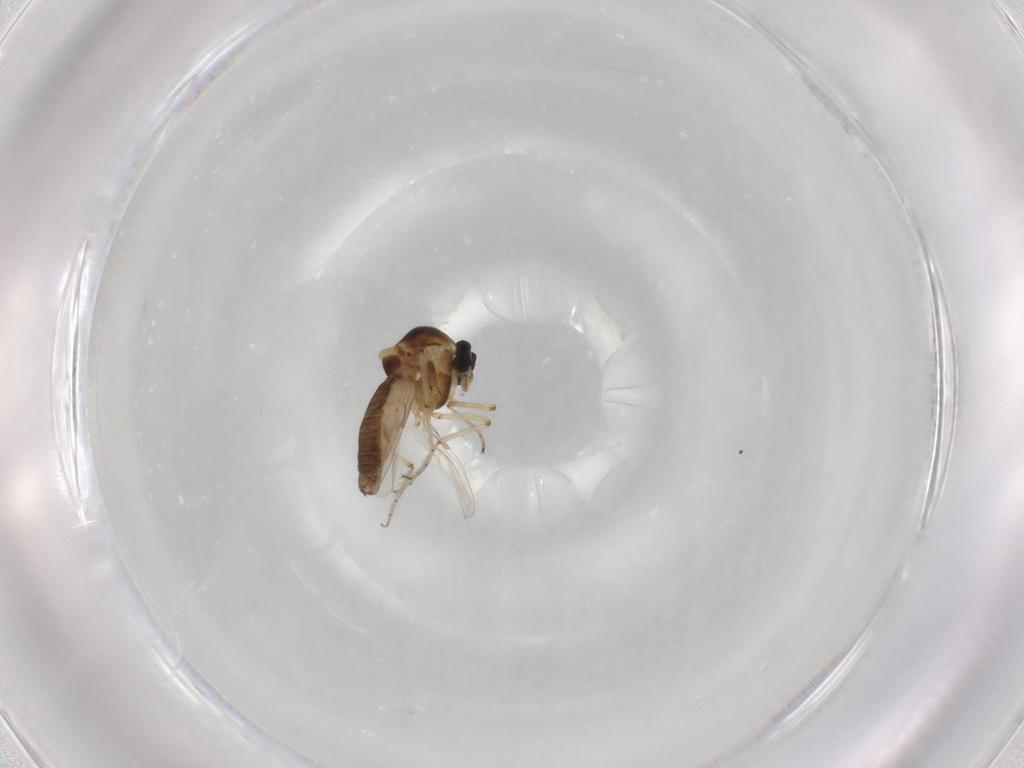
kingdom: Animalia
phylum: Arthropoda
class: Insecta
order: Diptera
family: Ceratopogonidae
